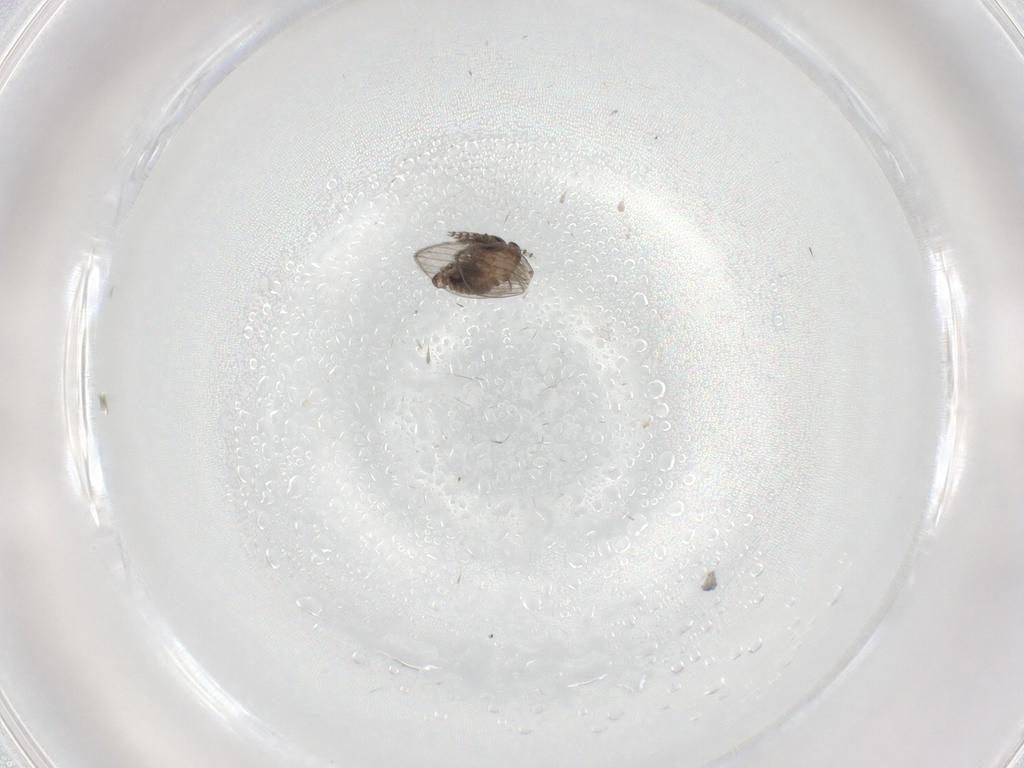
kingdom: Animalia
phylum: Arthropoda
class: Insecta
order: Diptera
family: Psychodidae
